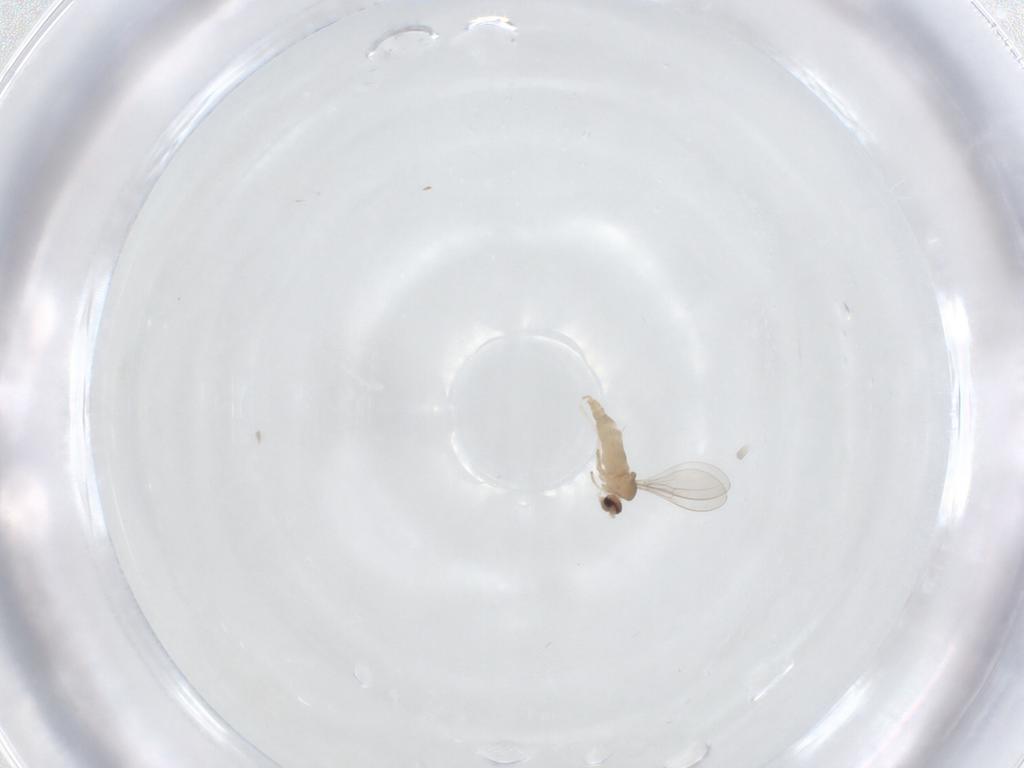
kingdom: Animalia
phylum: Arthropoda
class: Insecta
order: Diptera
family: Cecidomyiidae
